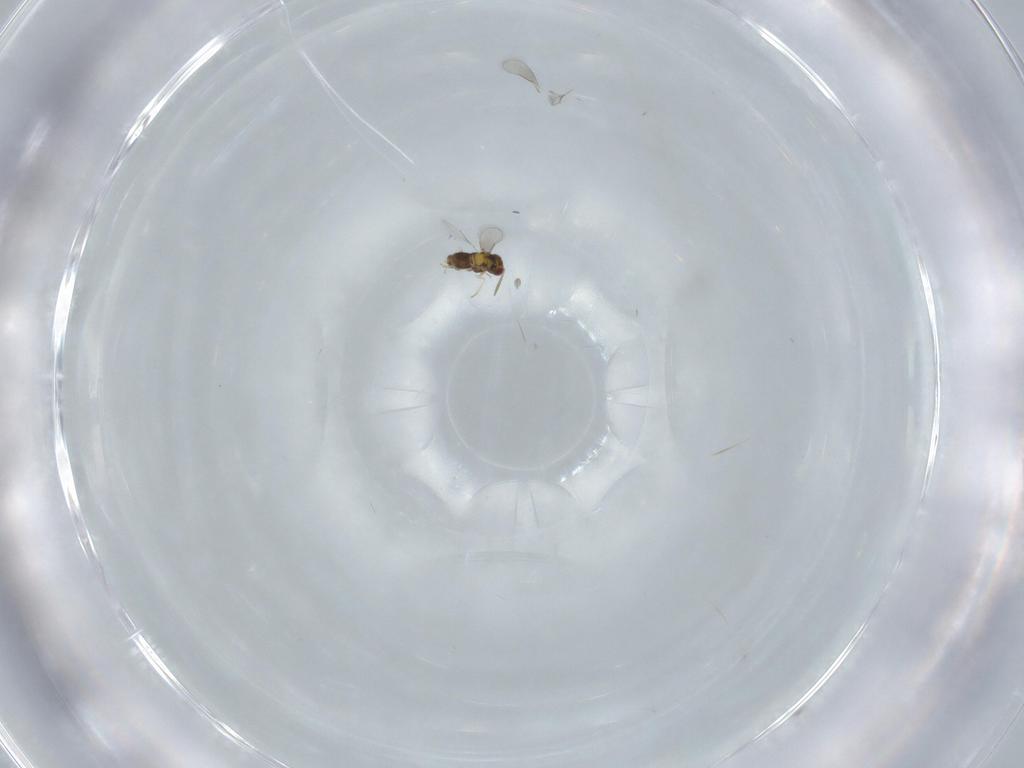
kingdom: Animalia
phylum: Arthropoda
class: Insecta
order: Hymenoptera
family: Aphelinidae
